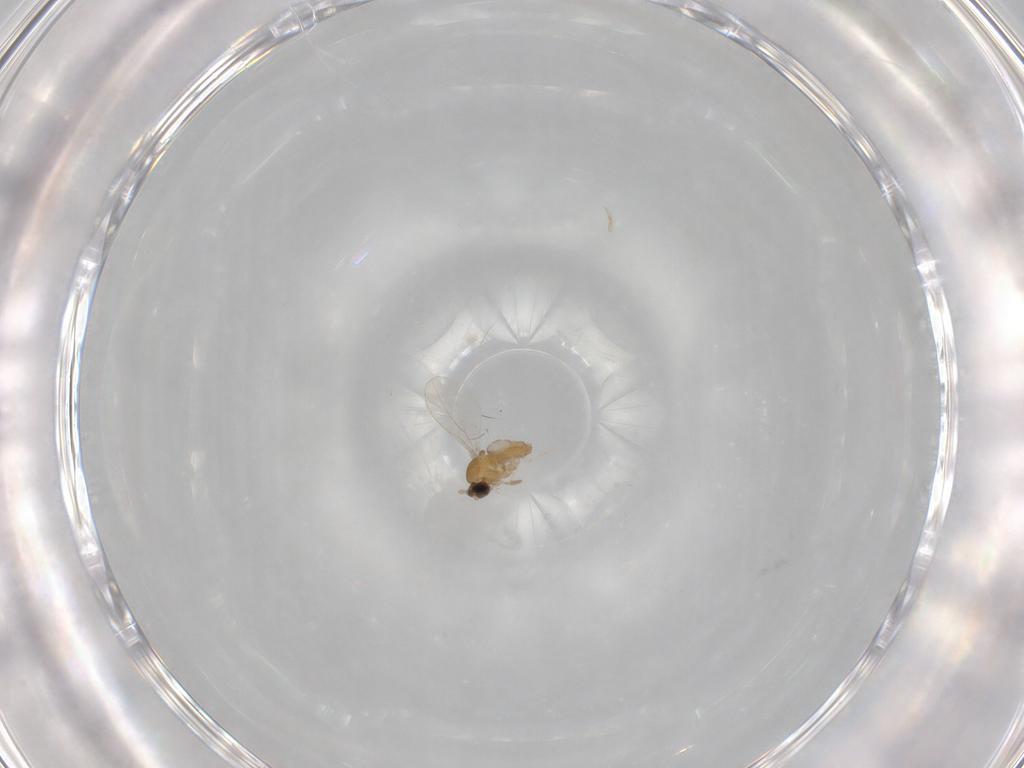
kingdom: Animalia
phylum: Arthropoda
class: Insecta
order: Diptera
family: Cecidomyiidae
